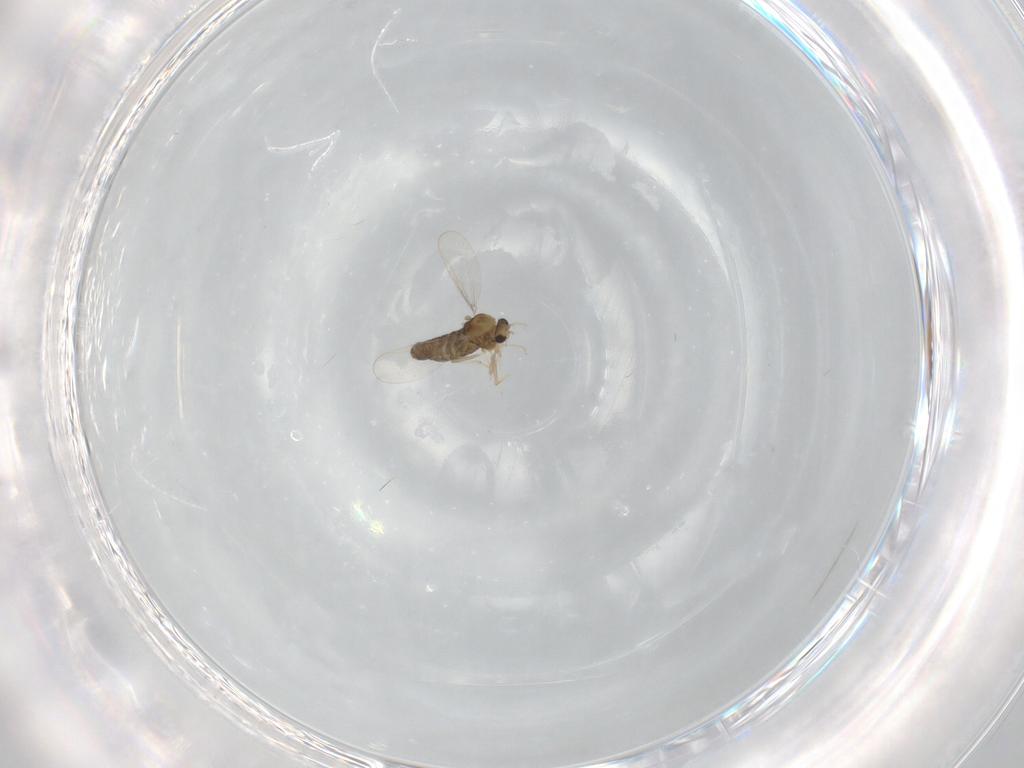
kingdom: Animalia
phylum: Arthropoda
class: Insecta
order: Diptera
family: Chironomidae
